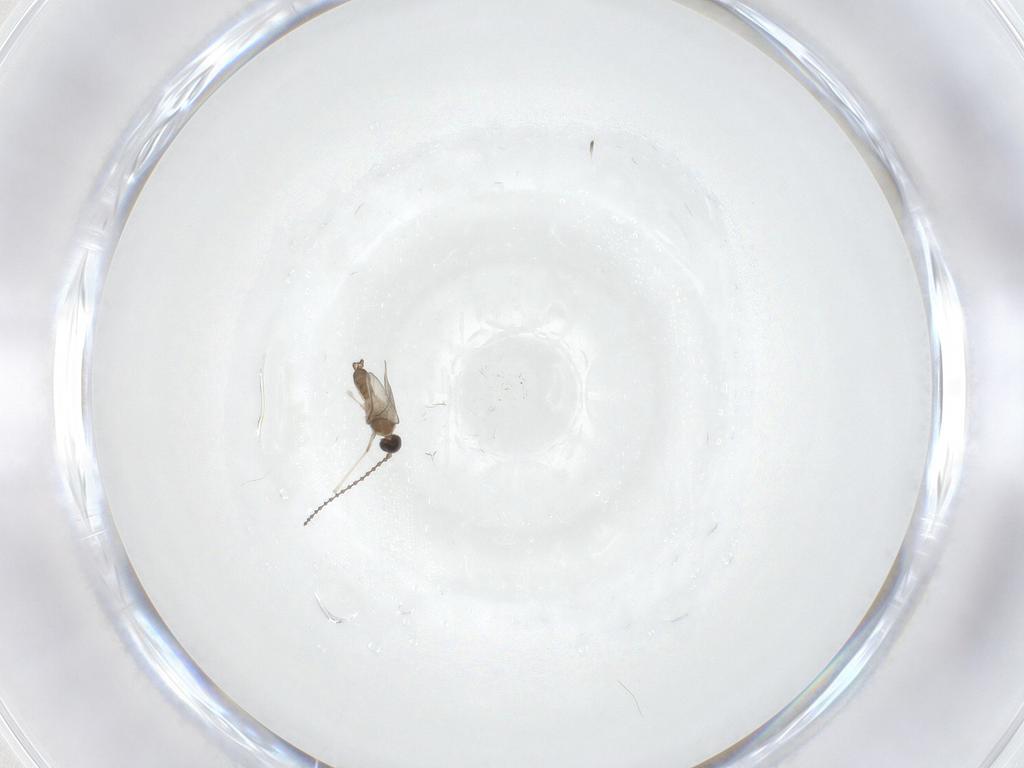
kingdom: Animalia
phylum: Arthropoda
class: Insecta
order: Diptera
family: Cecidomyiidae
